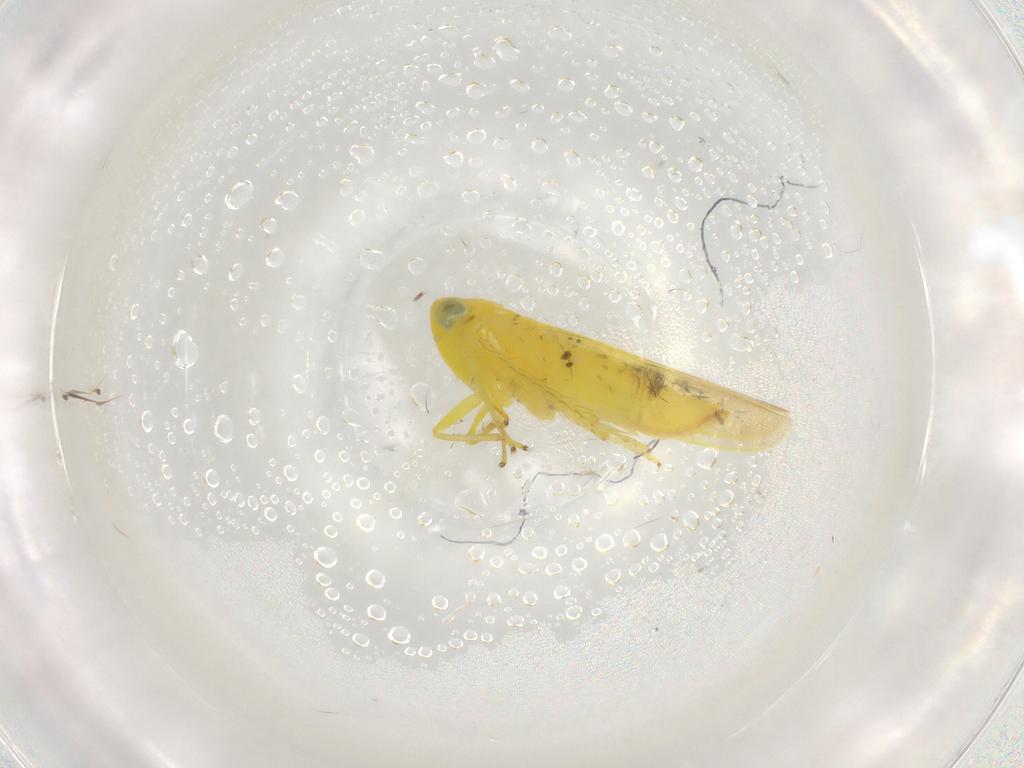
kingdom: Animalia
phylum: Arthropoda
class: Insecta
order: Hemiptera
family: Cicadellidae
